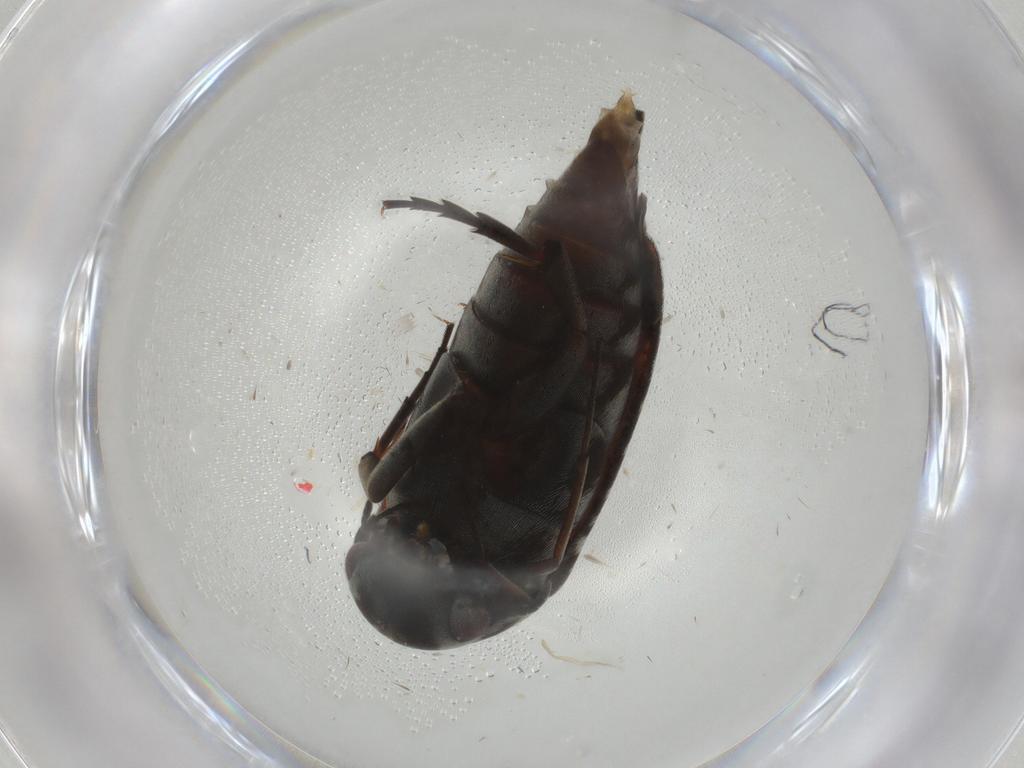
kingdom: Animalia
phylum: Arthropoda
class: Insecta
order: Coleoptera
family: Mordellidae
